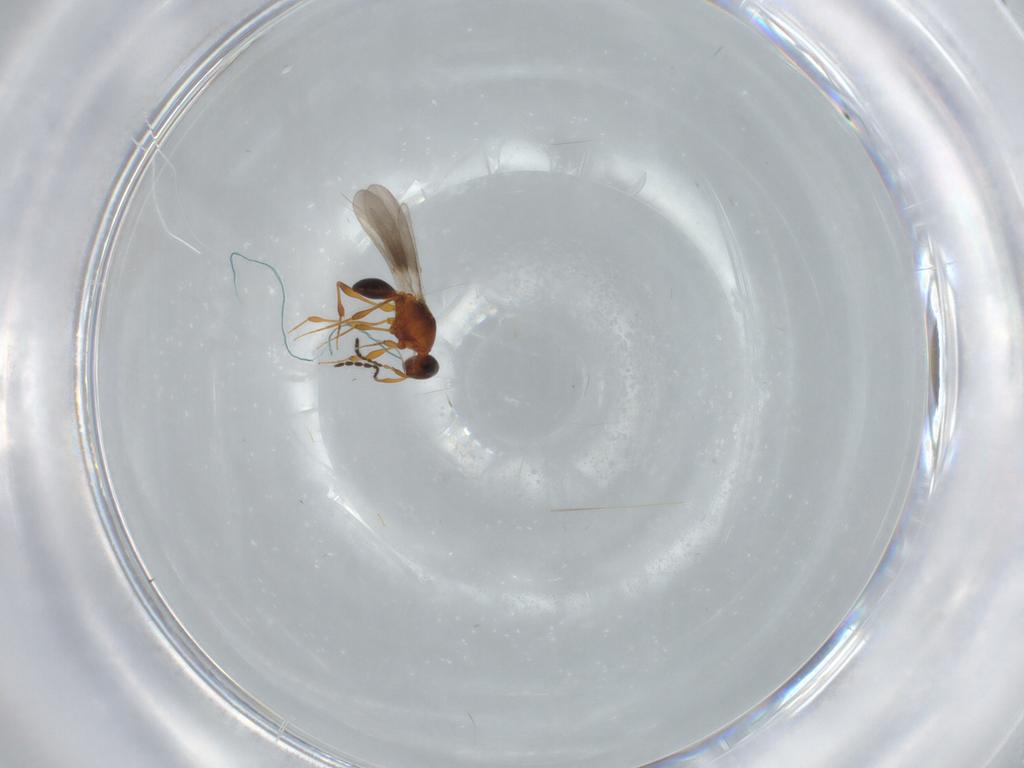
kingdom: Animalia
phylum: Arthropoda
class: Insecta
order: Hymenoptera
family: Platygastridae
